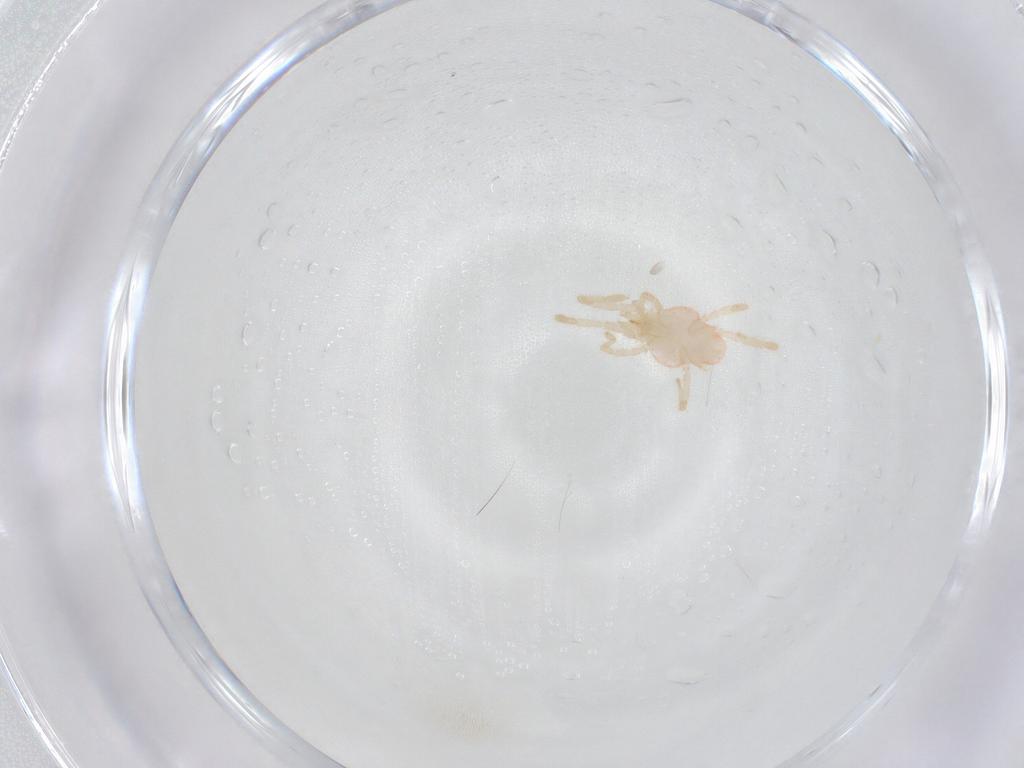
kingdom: Animalia
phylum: Arthropoda
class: Arachnida
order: Trombidiformes
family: Erythraeidae
